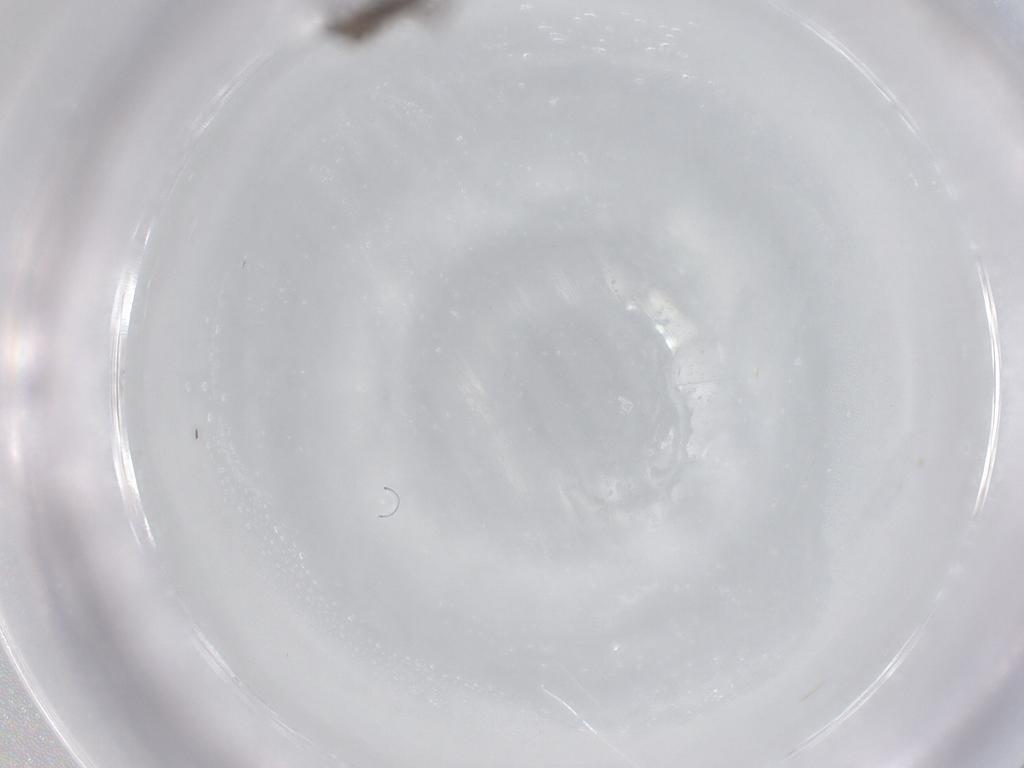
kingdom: Animalia
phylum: Arthropoda
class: Insecta
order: Diptera
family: Sciaridae
